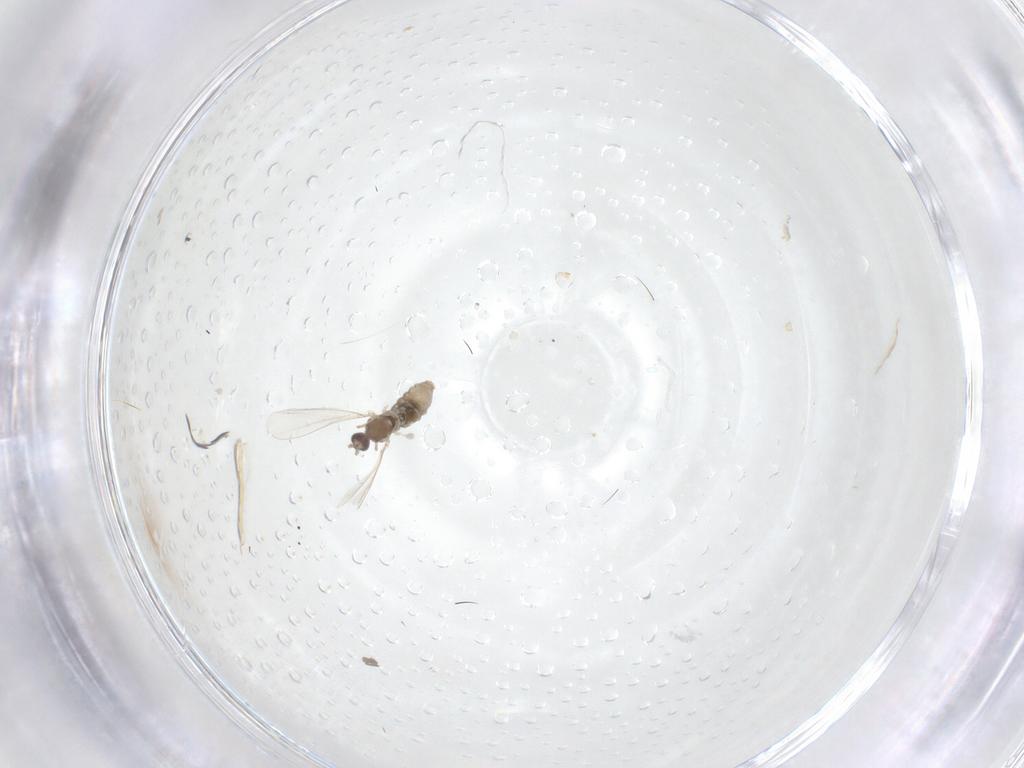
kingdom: Animalia
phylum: Arthropoda
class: Insecta
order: Diptera
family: Cecidomyiidae
